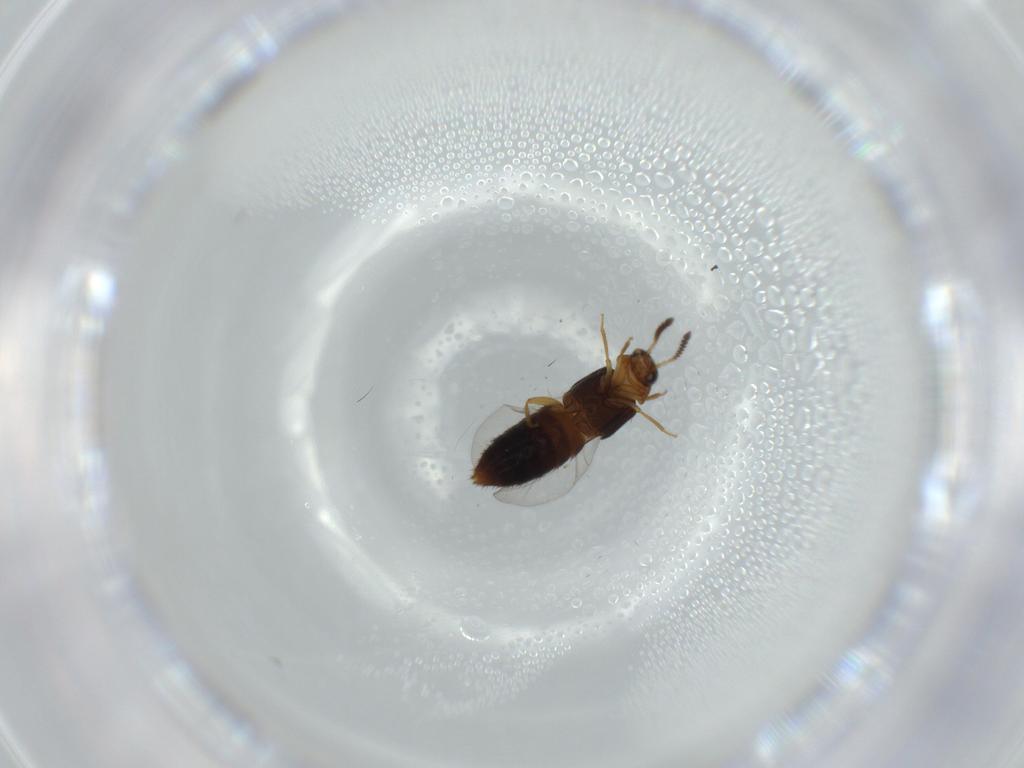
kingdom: Animalia
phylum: Arthropoda
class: Insecta
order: Coleoptera
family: Staphylinidae
